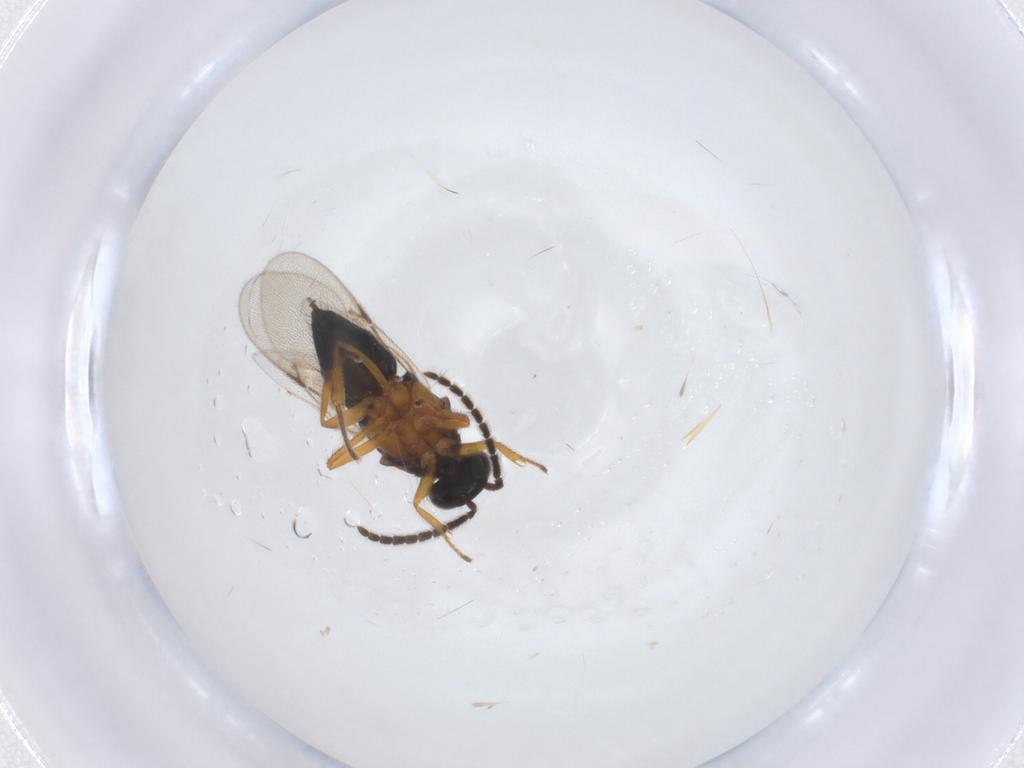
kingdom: Animalia
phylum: Arthropoda
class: Insecta
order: Hymenoptera
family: Encyrtidae
